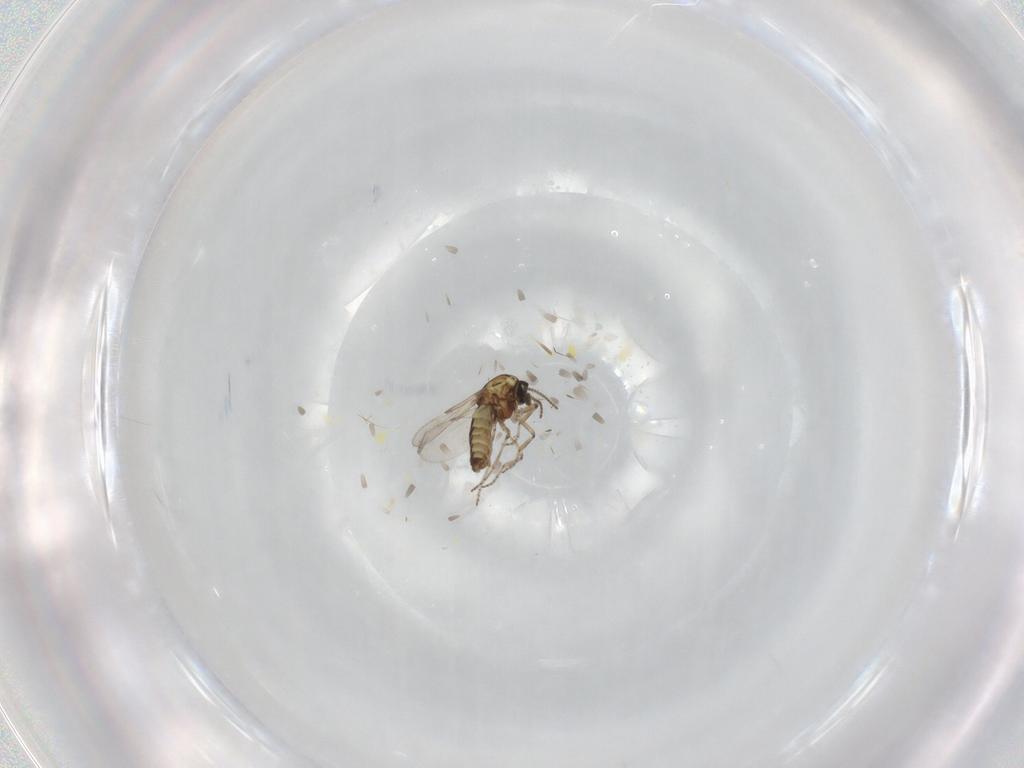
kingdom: Animalia
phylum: Arthropoda
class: Insecta
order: Diptera
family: Ceratopogonidae
